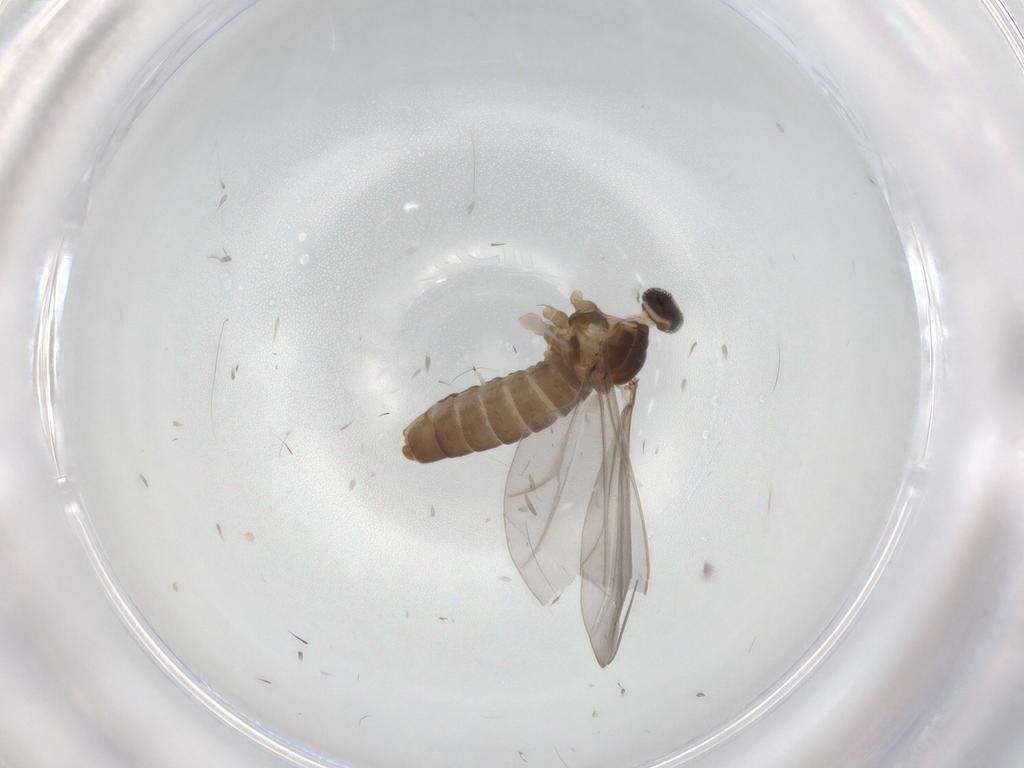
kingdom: Animalia
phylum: Arthropoda
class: Insecta
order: Diptera
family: Cecidomyiidae
